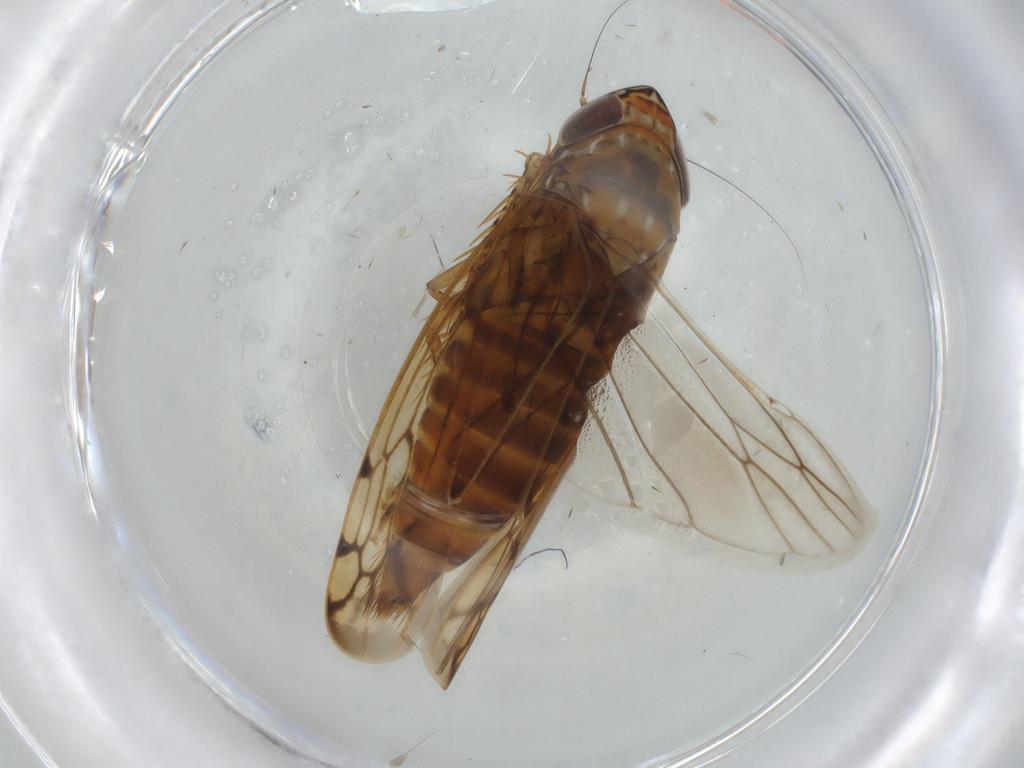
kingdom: Animalia
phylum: Arthropoda
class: Insecta
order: Hemiptera
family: Cicadellidae
